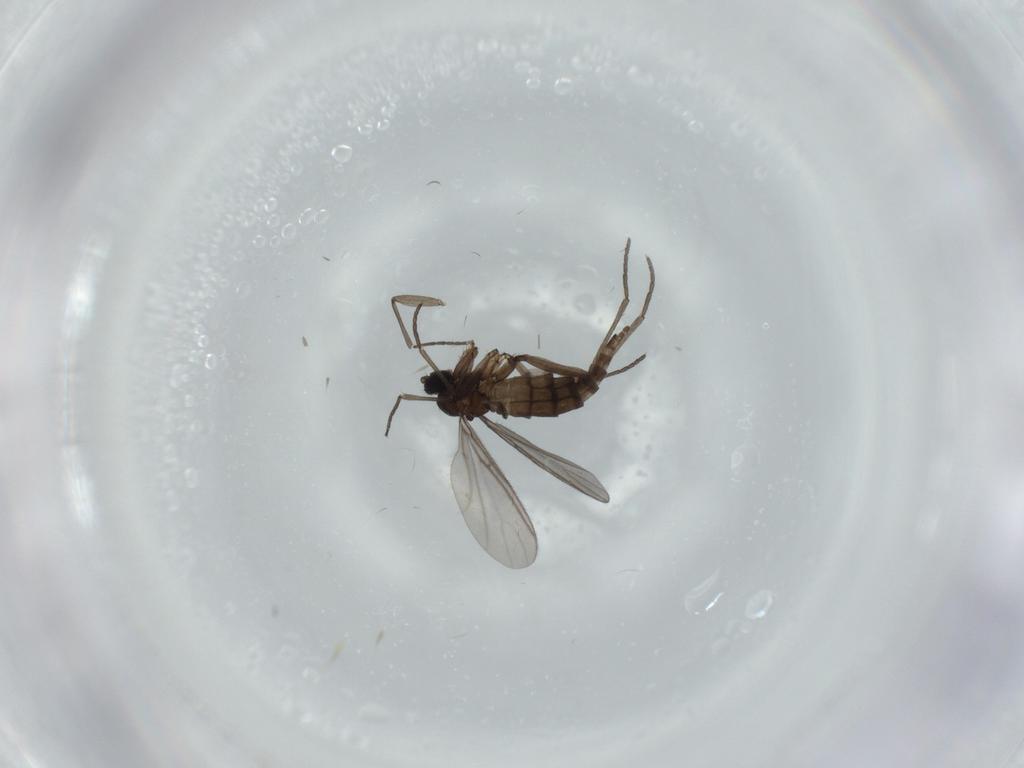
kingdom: Animalia
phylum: Arthropoda
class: Insecta
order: Diptera
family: Cecidomyiidae
